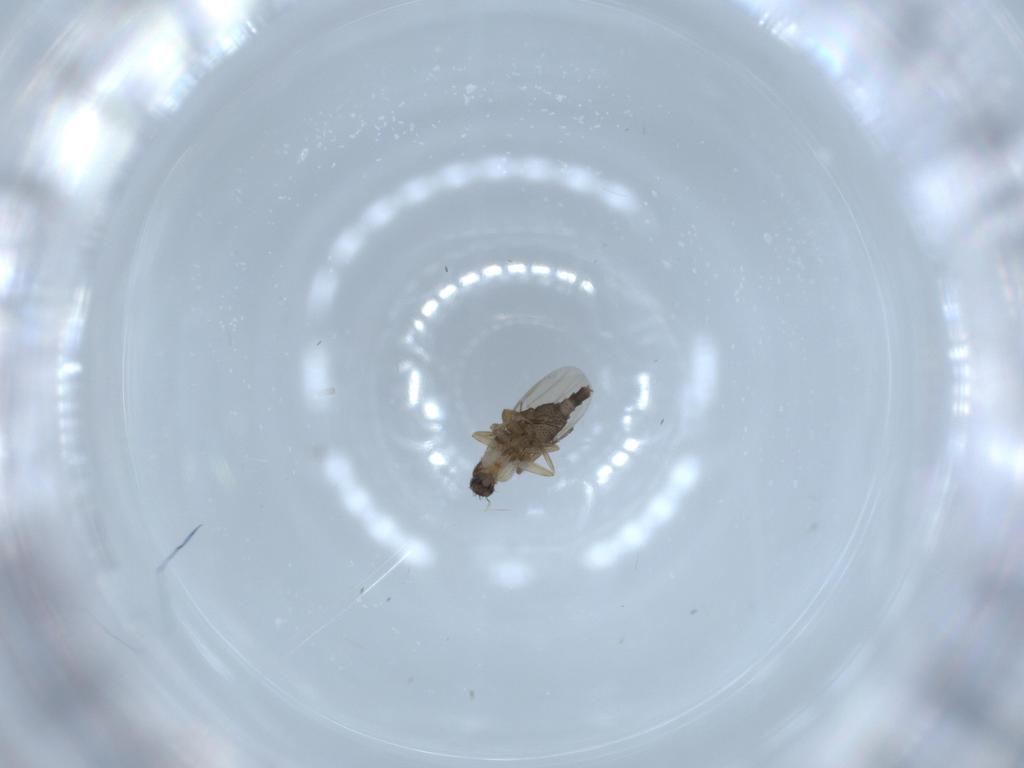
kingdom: Animalia
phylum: Arthropoda
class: Insecta
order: Diptera
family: Phoridae
